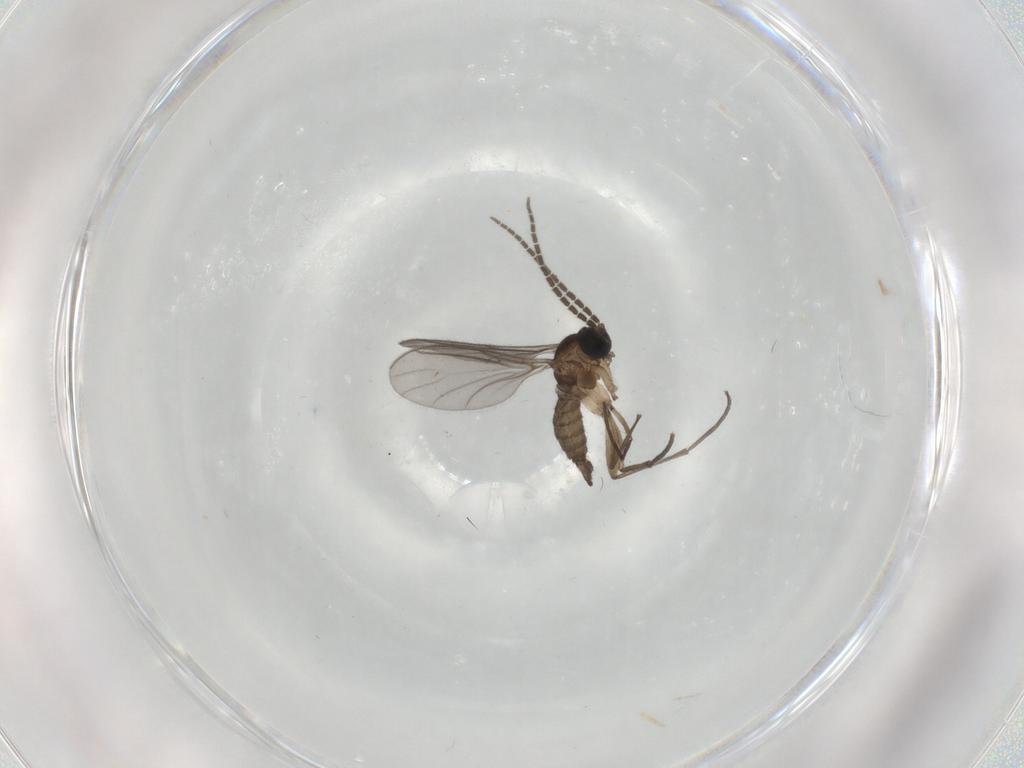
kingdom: Animalia
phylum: Arthropoda
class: Insecta
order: Diptera
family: Sciaridae
